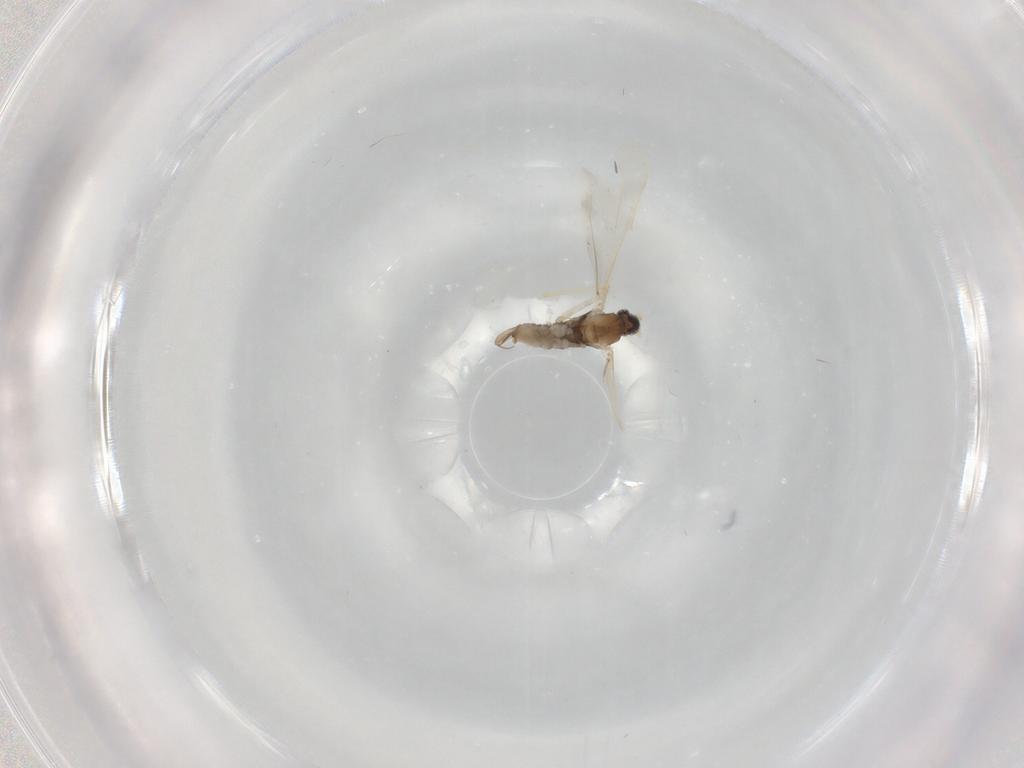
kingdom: Animalia
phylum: Arthropoda
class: Insecta
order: Diptera
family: Cecidomyiidae
